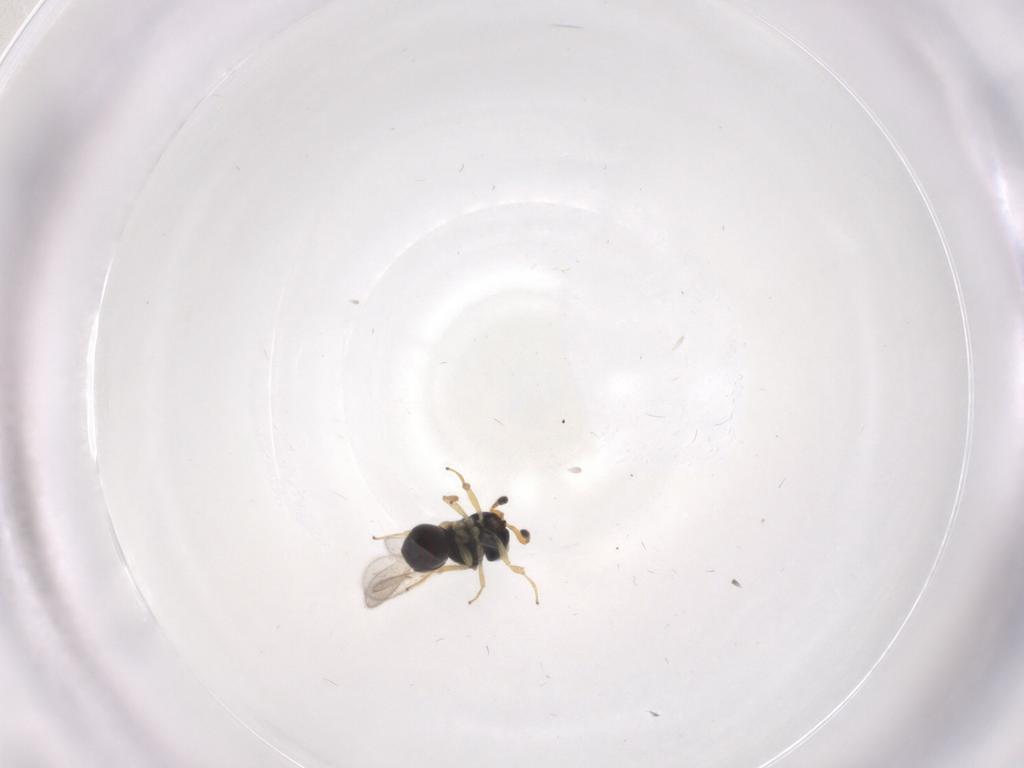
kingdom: Animalia
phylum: Arthropoda
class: Insecta
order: Hymenoptera
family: Scelionidae
